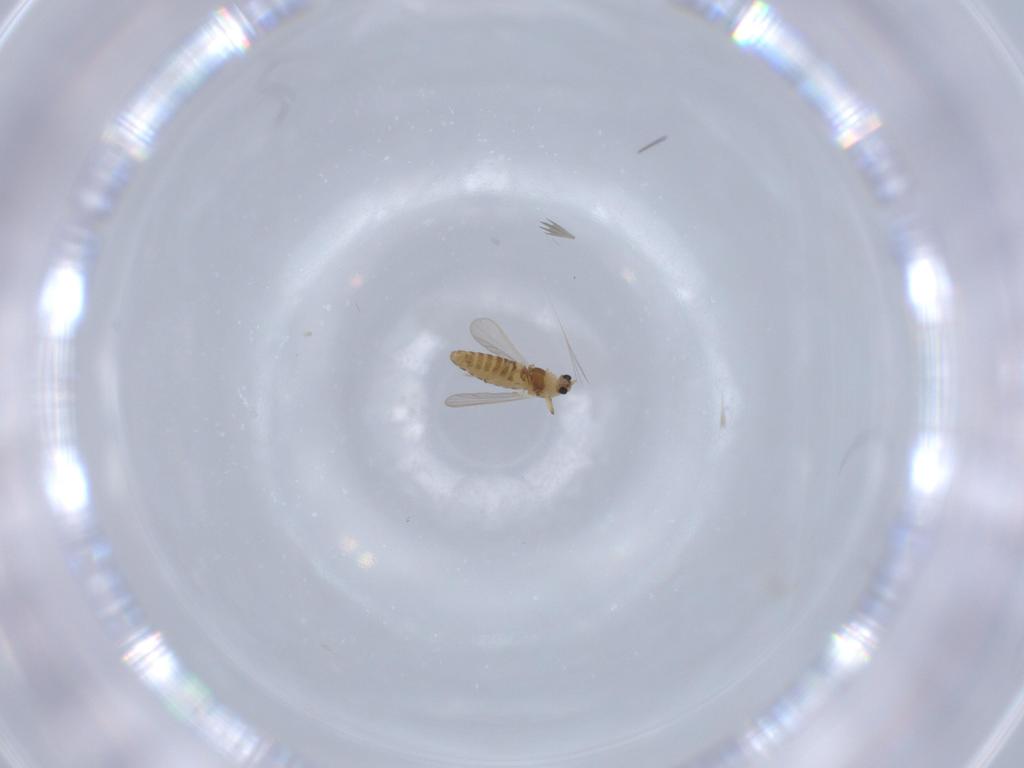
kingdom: Animalia
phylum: Arthropoda
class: Insecta
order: Diptera
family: Chironomidae
